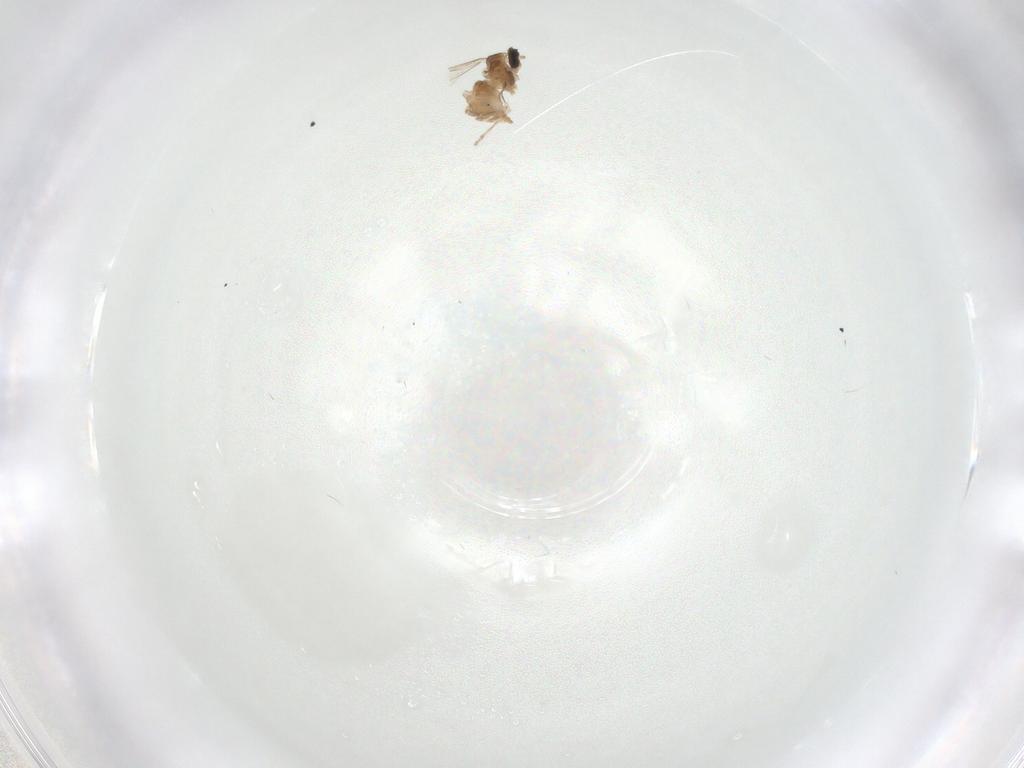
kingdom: Animalia
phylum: Arthropoda
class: Insecta
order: Diptera
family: Cecidomyiidae
